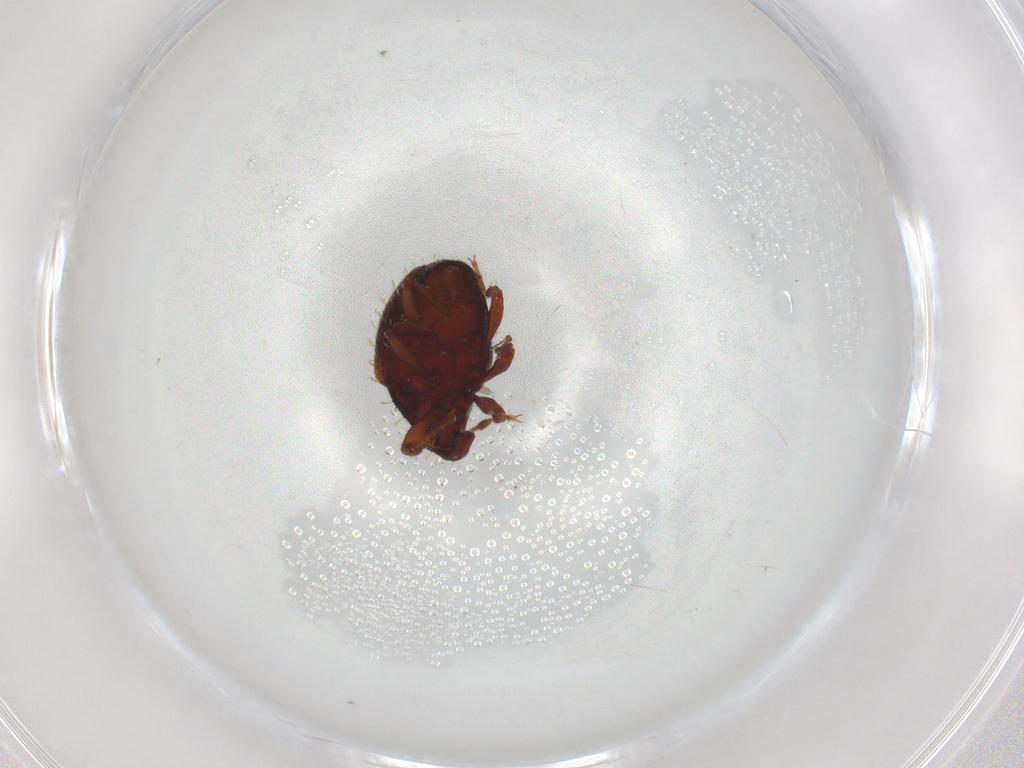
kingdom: Animalia
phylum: Arthropoda
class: Insecta
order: Coleoptera
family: Curculionidae
